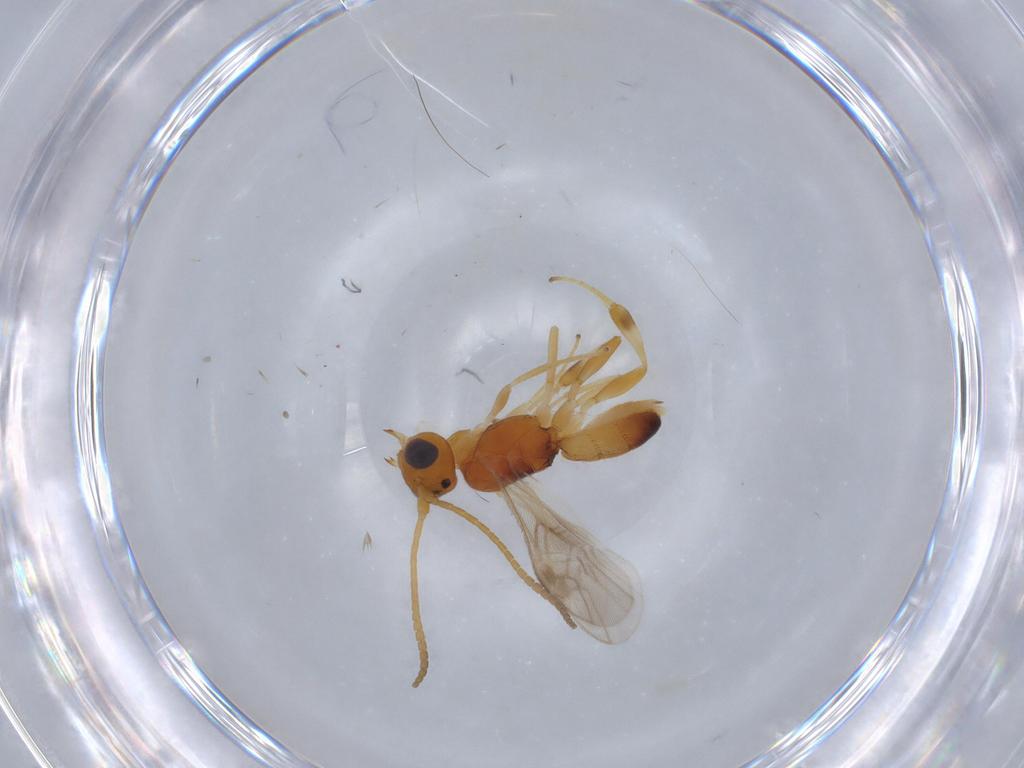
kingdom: Animalia
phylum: Arthropoda
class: Insecta
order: Hymenoptera
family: Braconidae
